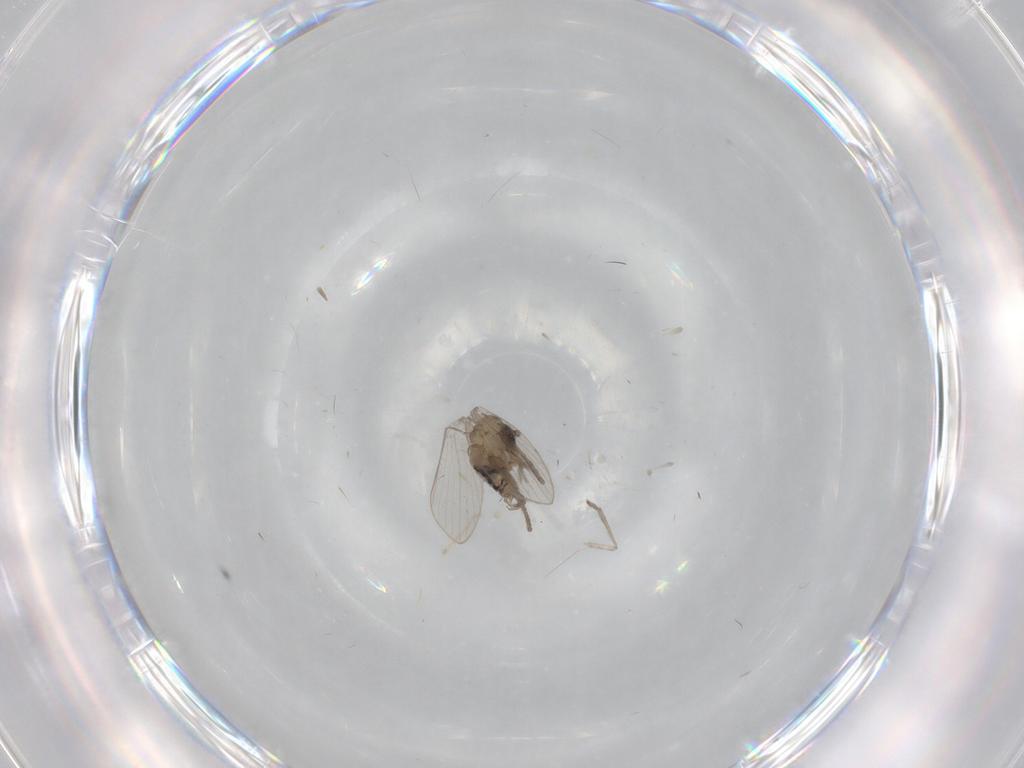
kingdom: Animalia
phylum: Arthropoda
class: Insecta
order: Diptera
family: Psychodidae
